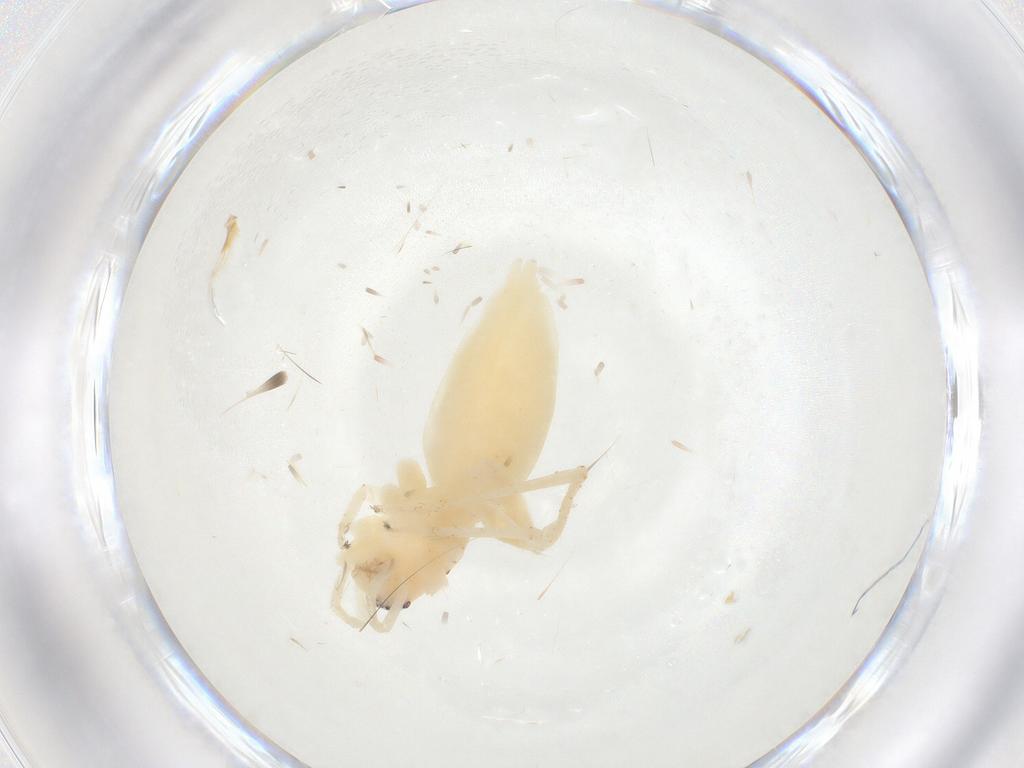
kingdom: Animalia
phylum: Arthropoda
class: Arachnida
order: Araneae
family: Anyphaenidae
